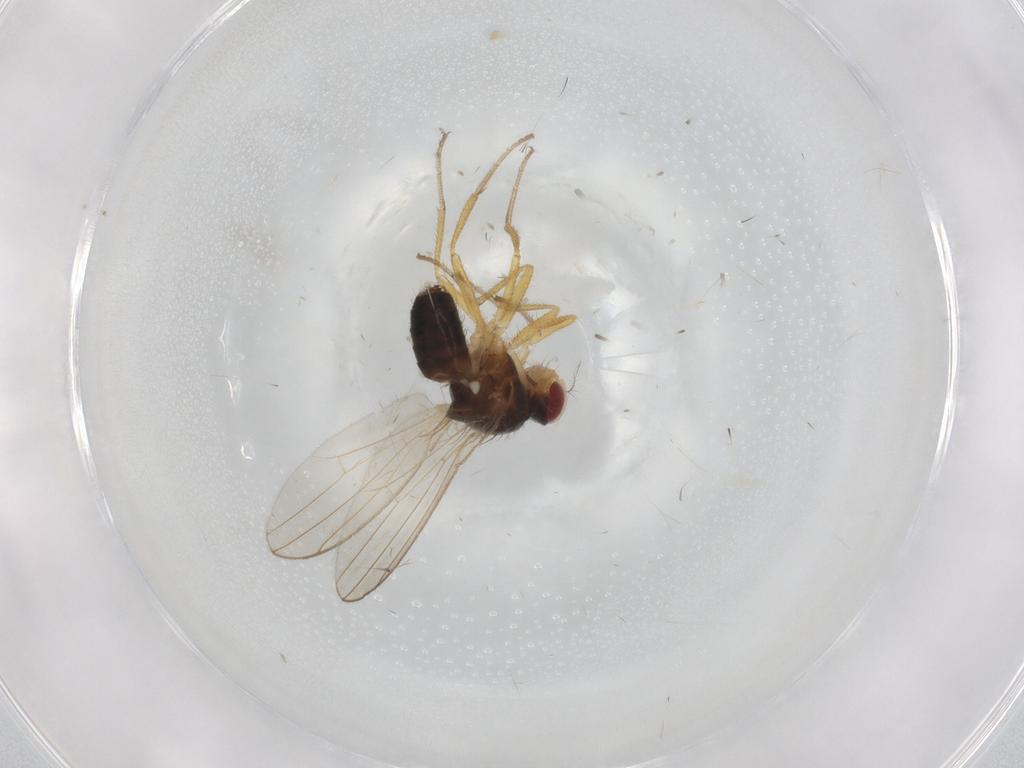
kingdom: Animalia
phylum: Arthropoda
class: Insecta
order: Diptera
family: Drosophilidae
